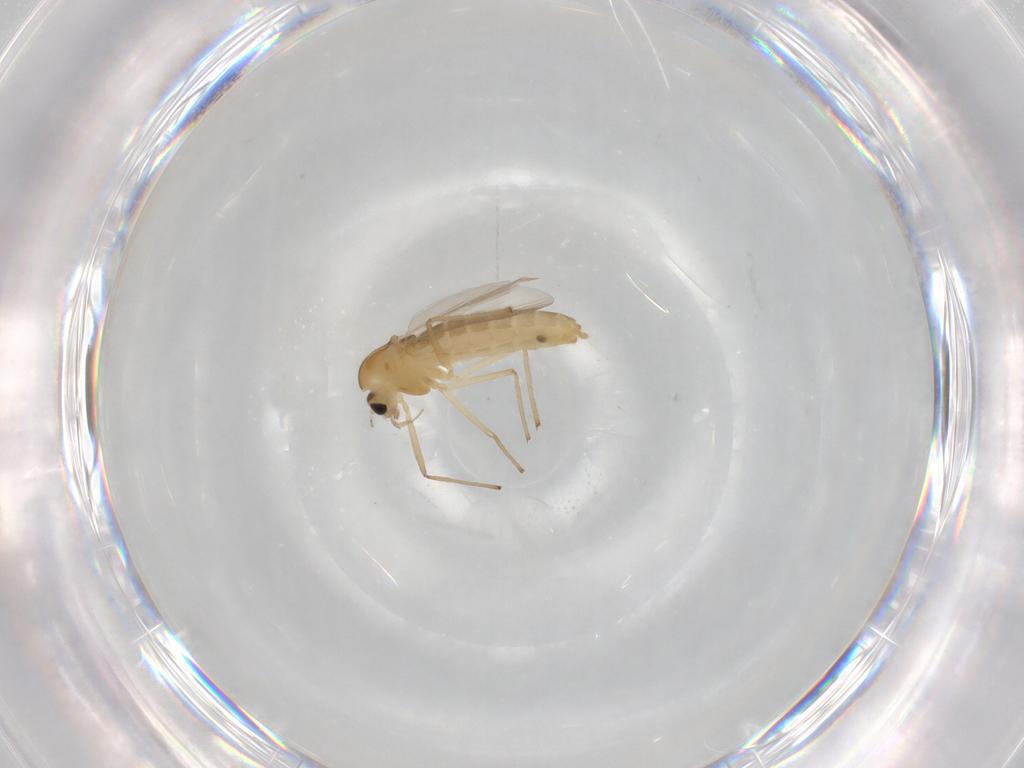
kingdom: Animalia
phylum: Arthropoda
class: Insecta
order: Diptera
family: Chironomidae
